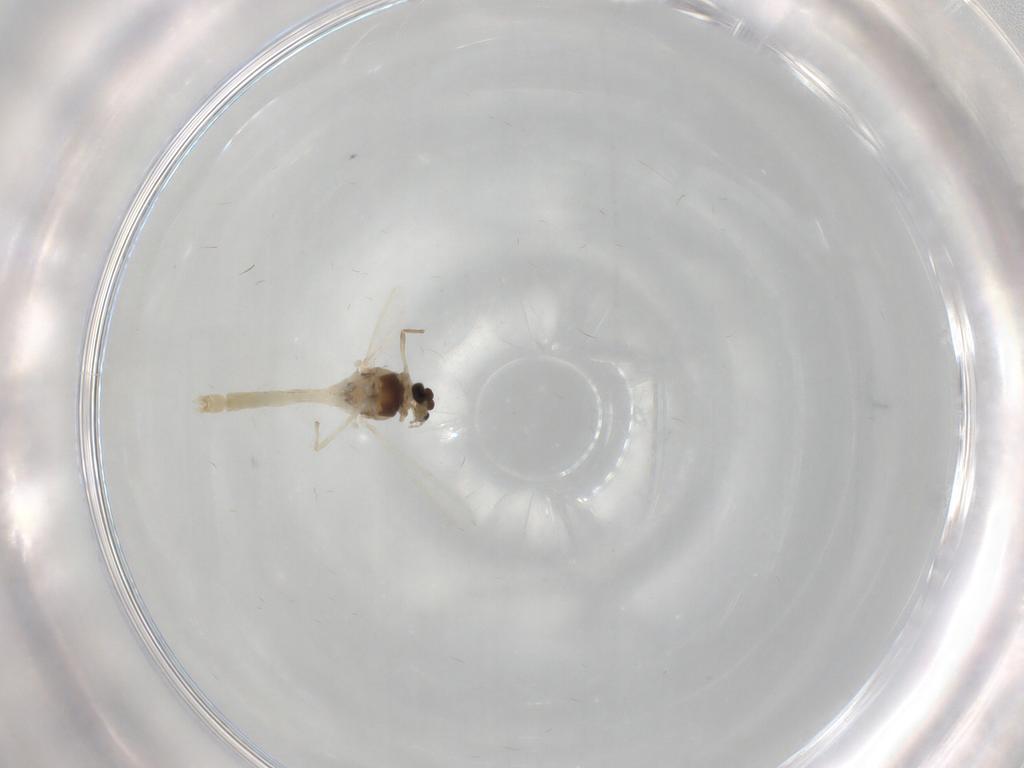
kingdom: Animalia
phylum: Arthropoda
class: Insecta
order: Diptera
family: Chironomidae
